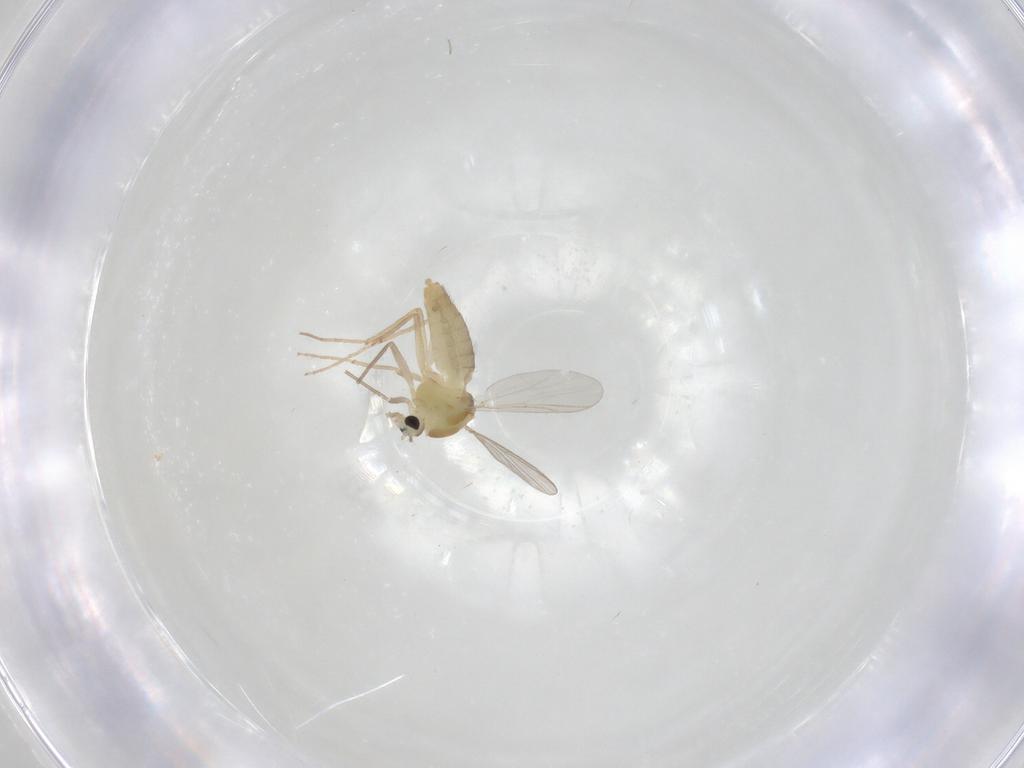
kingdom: Animalia
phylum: Arthropoda
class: Insecta
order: Diptera
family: Chironomidae
